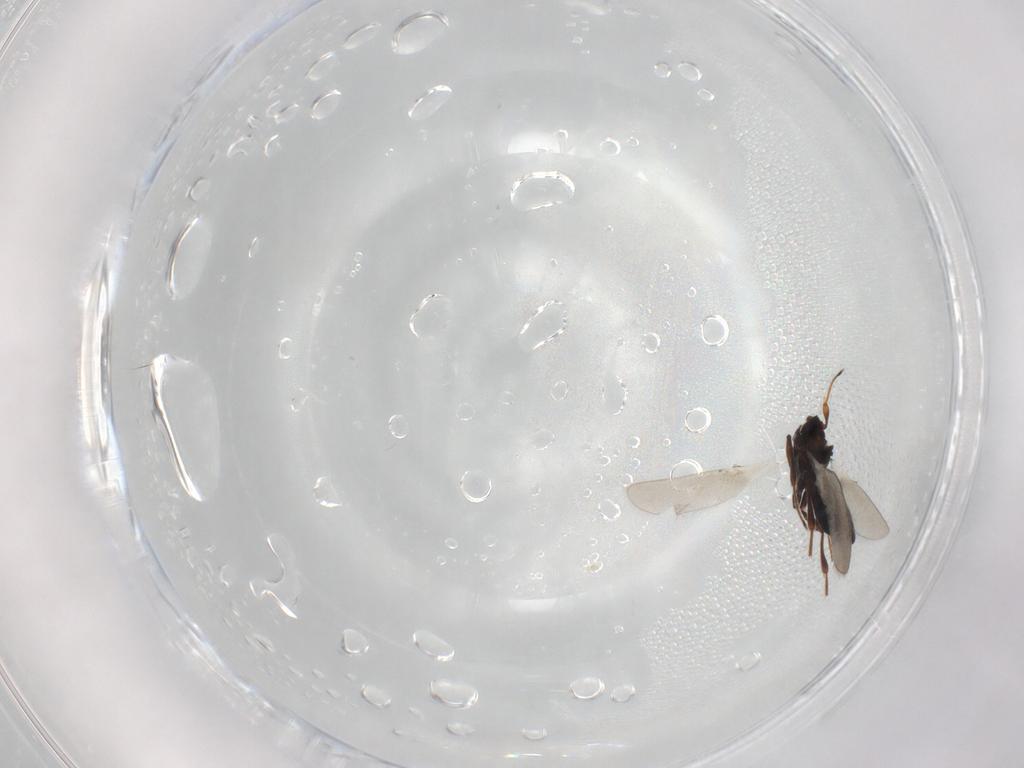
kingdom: Animalia
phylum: Arthropoda
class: Insecta
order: Hymenoptera
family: Platygastridae
